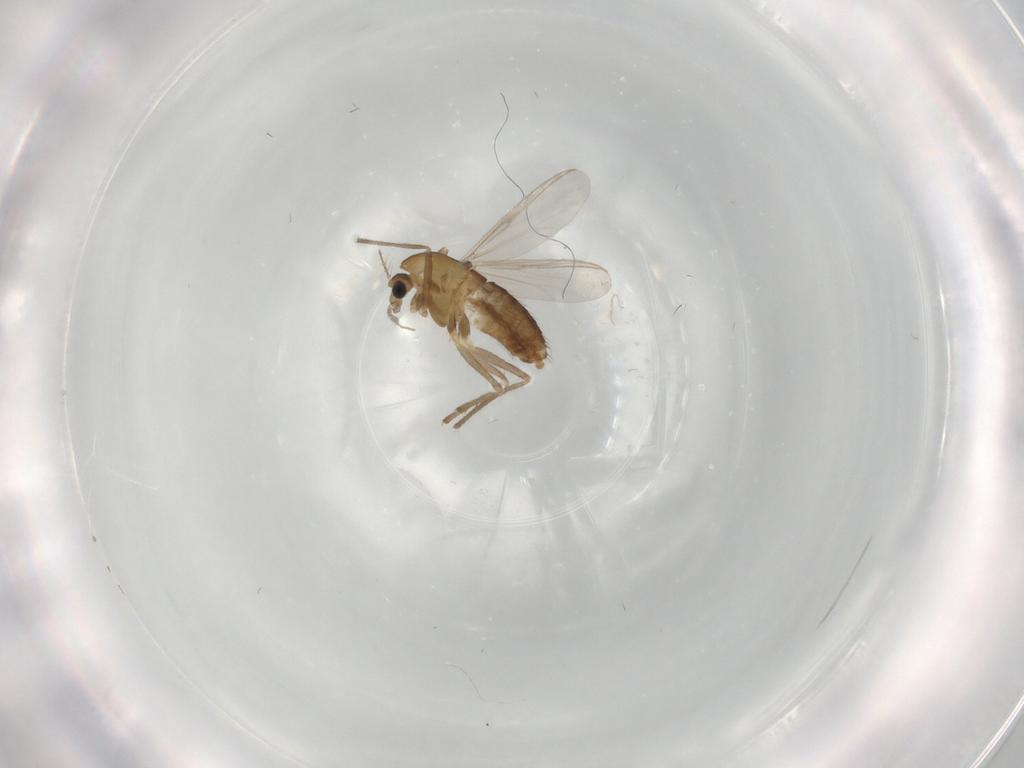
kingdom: Animalia
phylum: Arthropoda
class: Insecta
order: Diptera
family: Chironomidae
